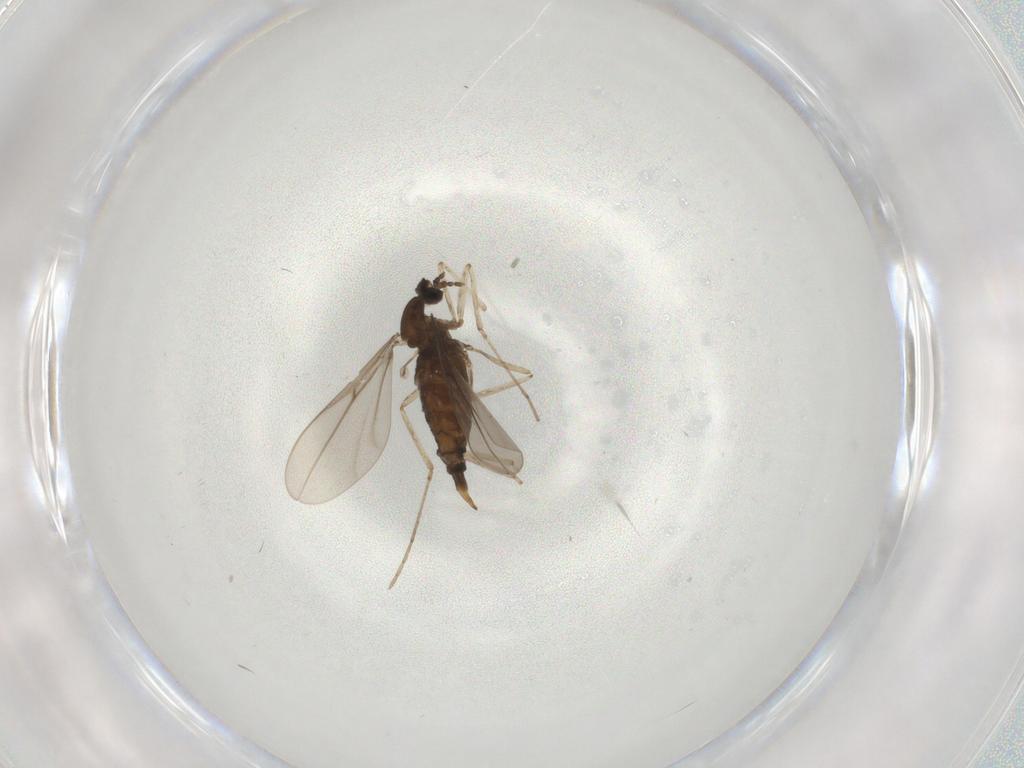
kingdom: Animalia
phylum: Arthropoda
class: Insecta
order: Diptera
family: Cecidomyiidae
